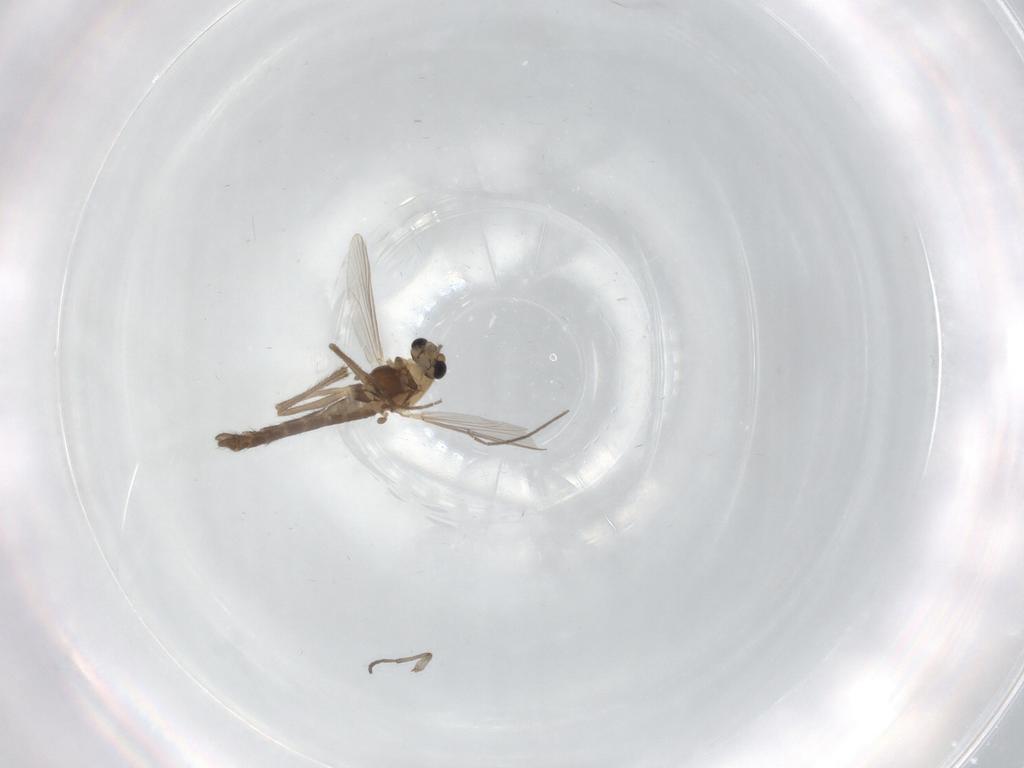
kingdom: Animalia
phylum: Arthropoda
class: Insecta
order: Diptera
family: Chironomidae
